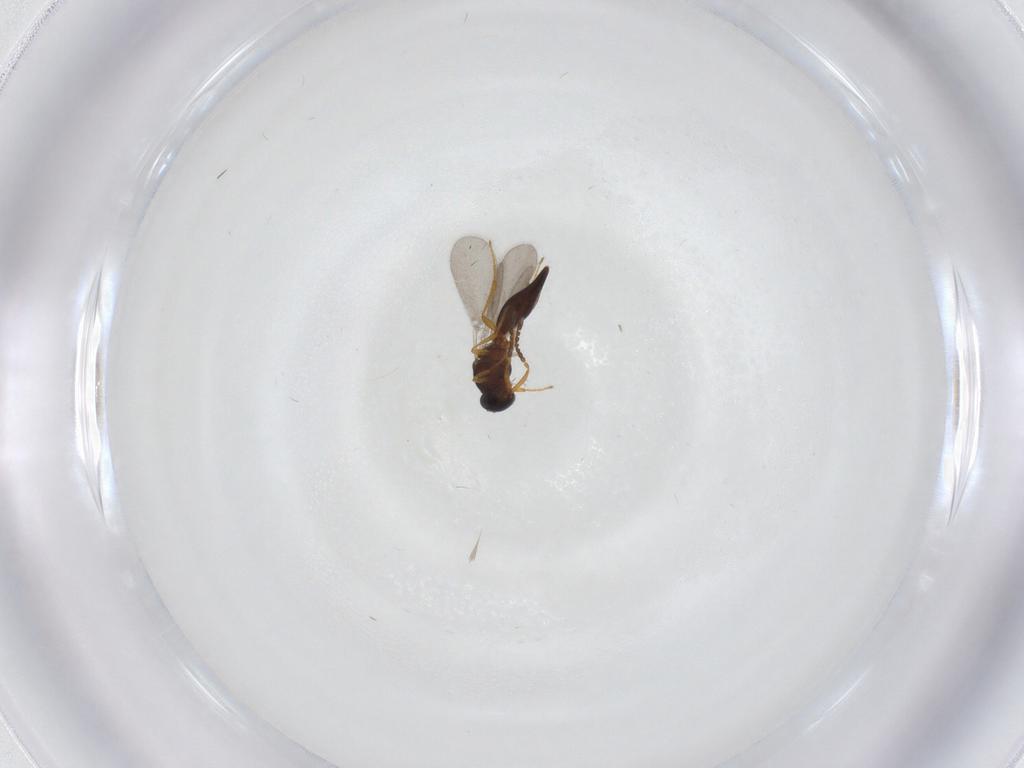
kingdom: Animalia
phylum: Arthropoda
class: Insecta
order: Hymenoptera
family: Platygastridae
